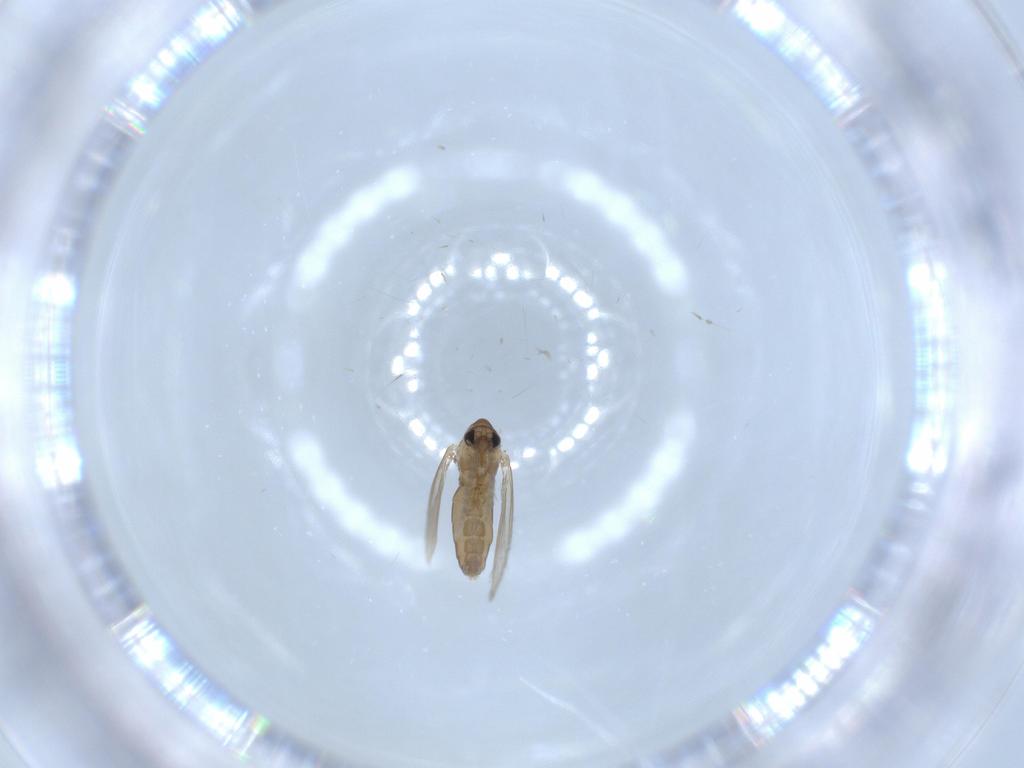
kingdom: Animalia
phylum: Arthropoda
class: Insecta
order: Diptera
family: Psychodidae
